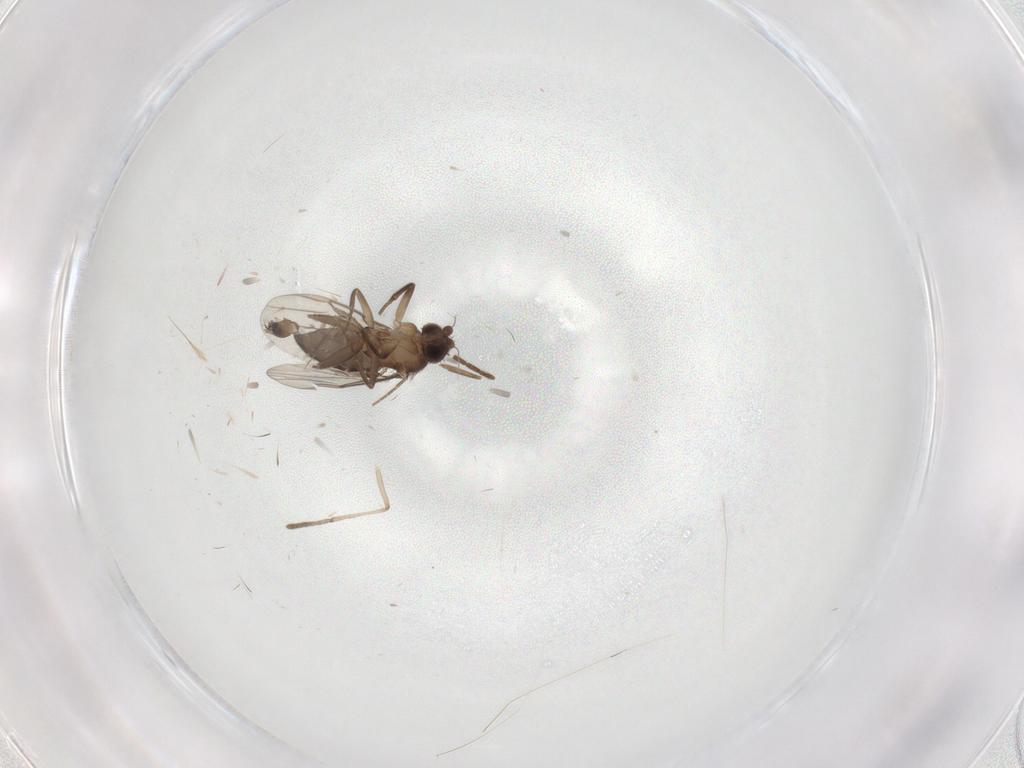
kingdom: Animalia
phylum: Arthropoda
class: Insecta
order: Diptera
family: Phoridae
